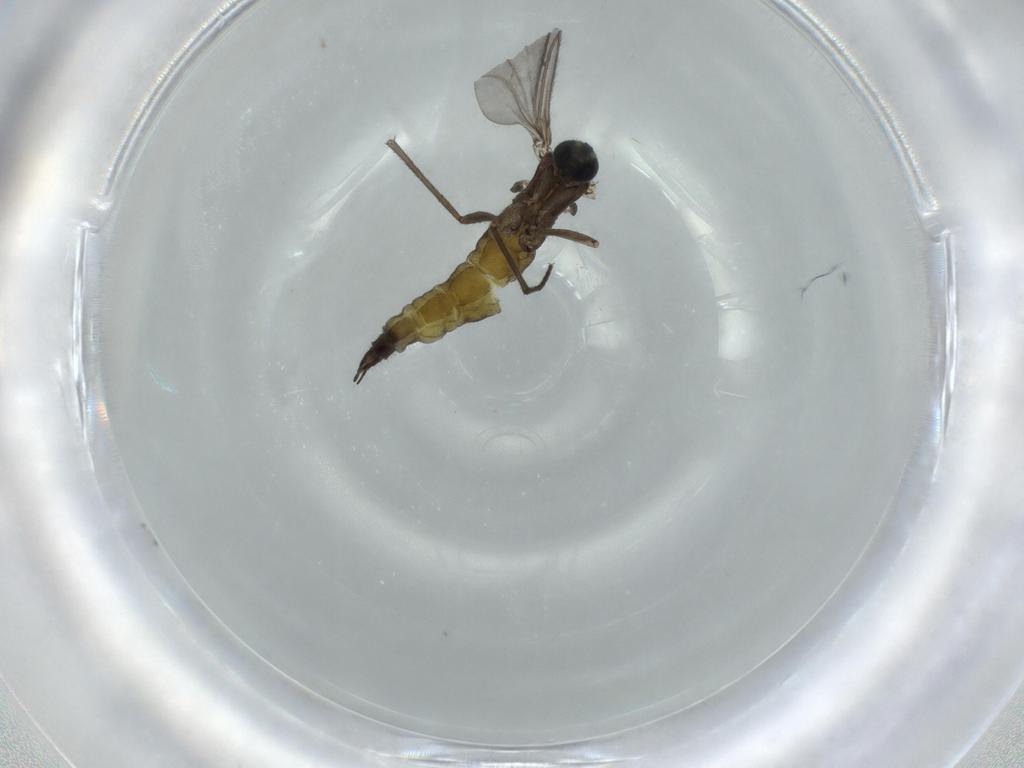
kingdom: Animalia
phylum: Arthropoda
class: Insecta
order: Diptera
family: Sciaridae
